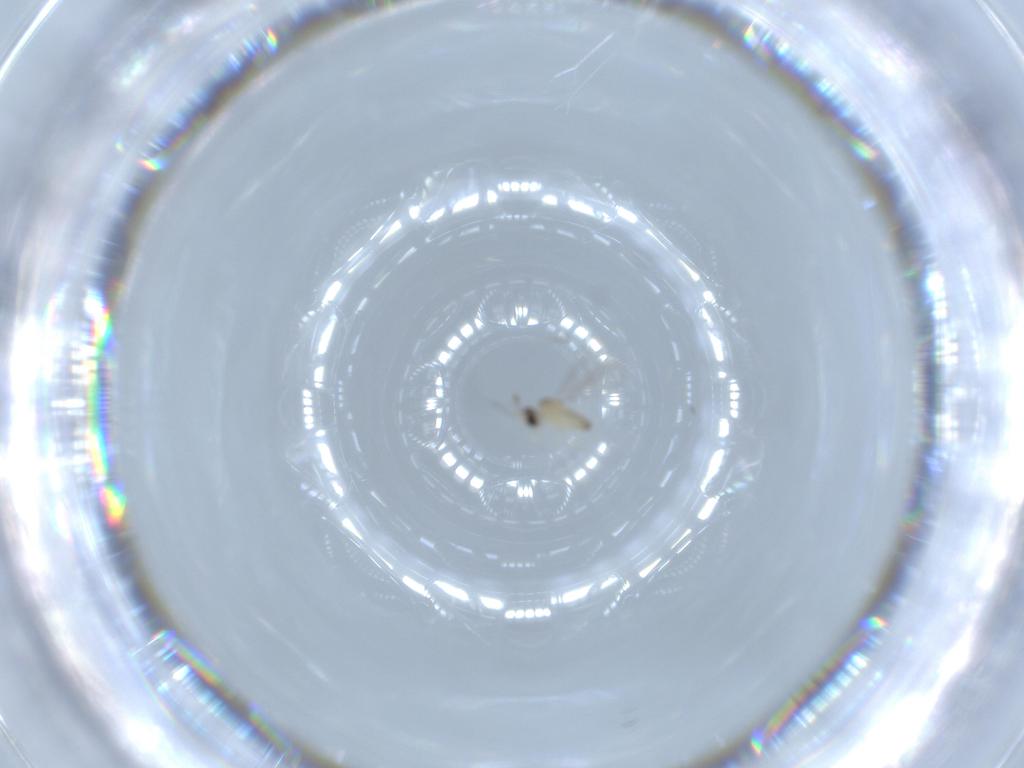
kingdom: Animalia
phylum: Arthropoda
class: Insecta
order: Diptera
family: Cecidomyiidae
